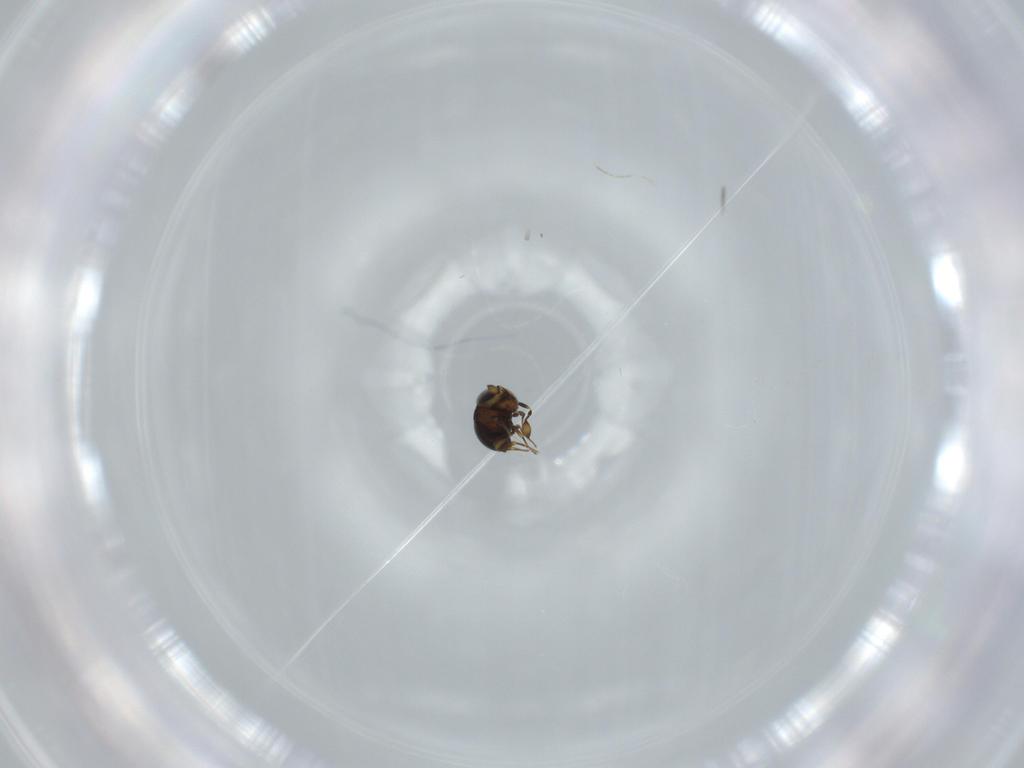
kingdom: Animalia
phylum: Arthropoda
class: Insecta
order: Hymenoptera
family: Scelionidae
